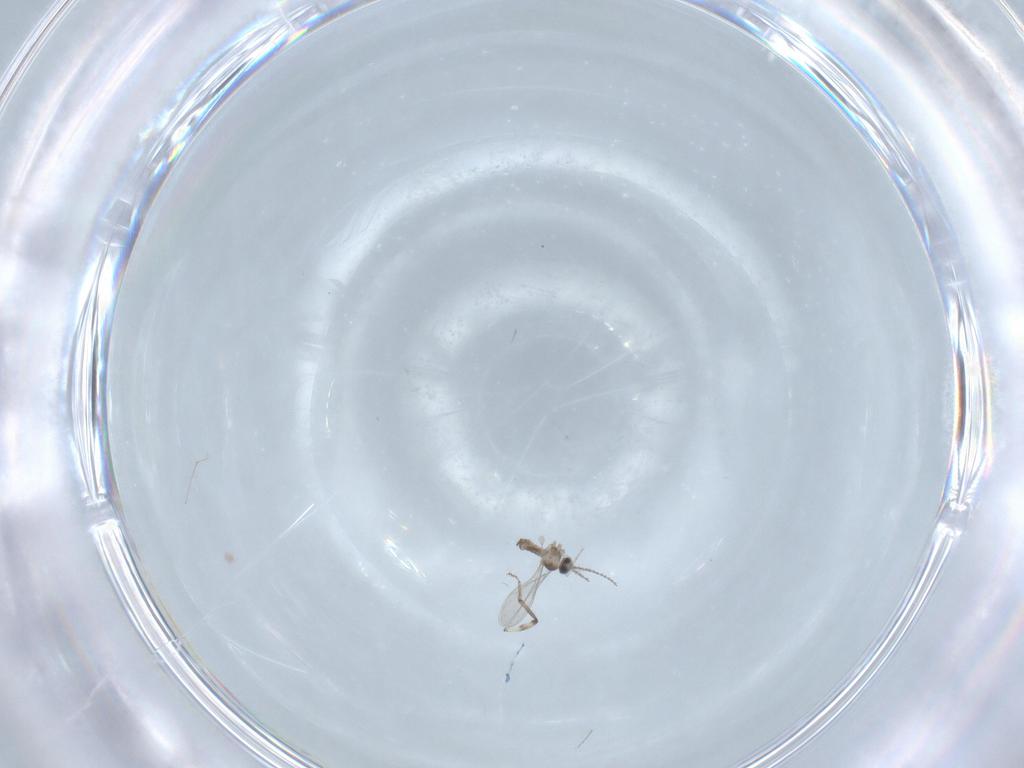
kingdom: Animalia
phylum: Arthropoda
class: Insecta
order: Diptera
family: Cecidomyiidae
